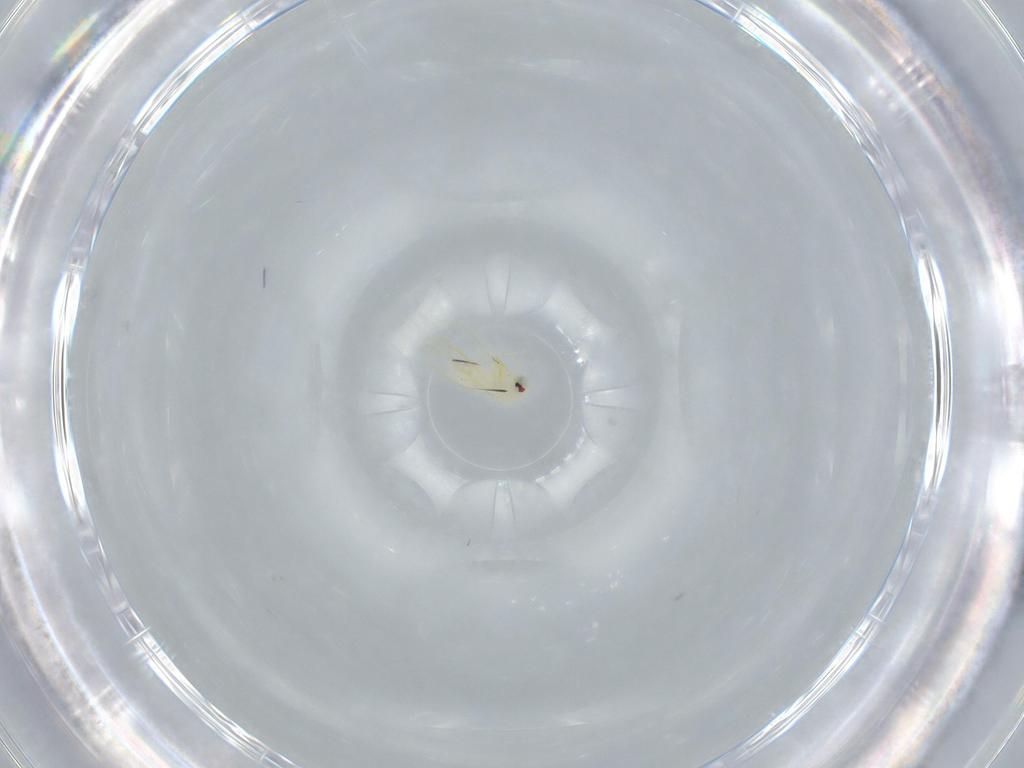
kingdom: Animalia
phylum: Arthropoda
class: Insecta
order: Hemiptera
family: Aleyrodidae
